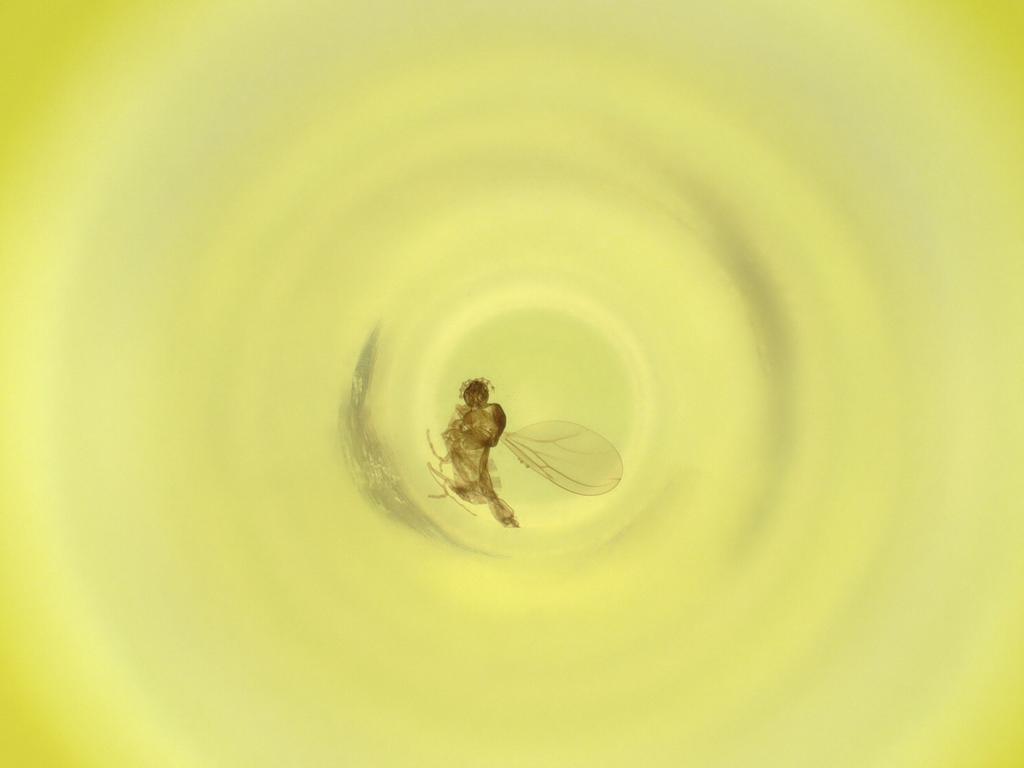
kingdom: Animalia
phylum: Arthropoda
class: Insecta
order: Diptera
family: Cecidomyiidae
